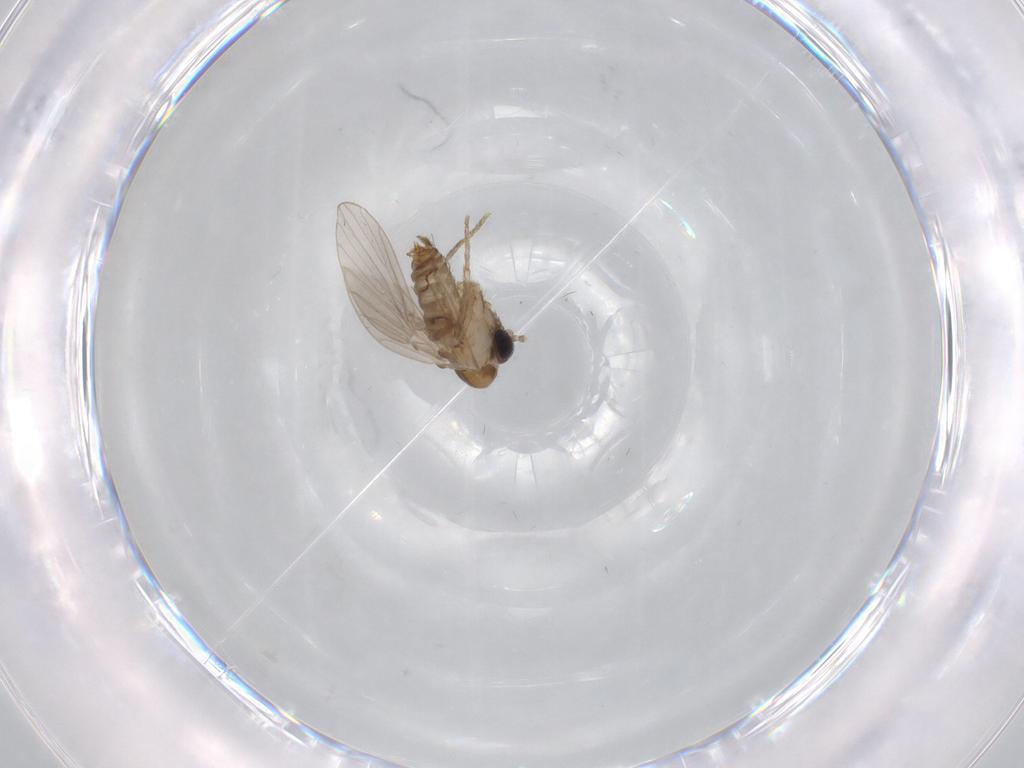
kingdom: Animalia
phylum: Arthropoda
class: Insecta
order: Diptera
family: Psychodidae
